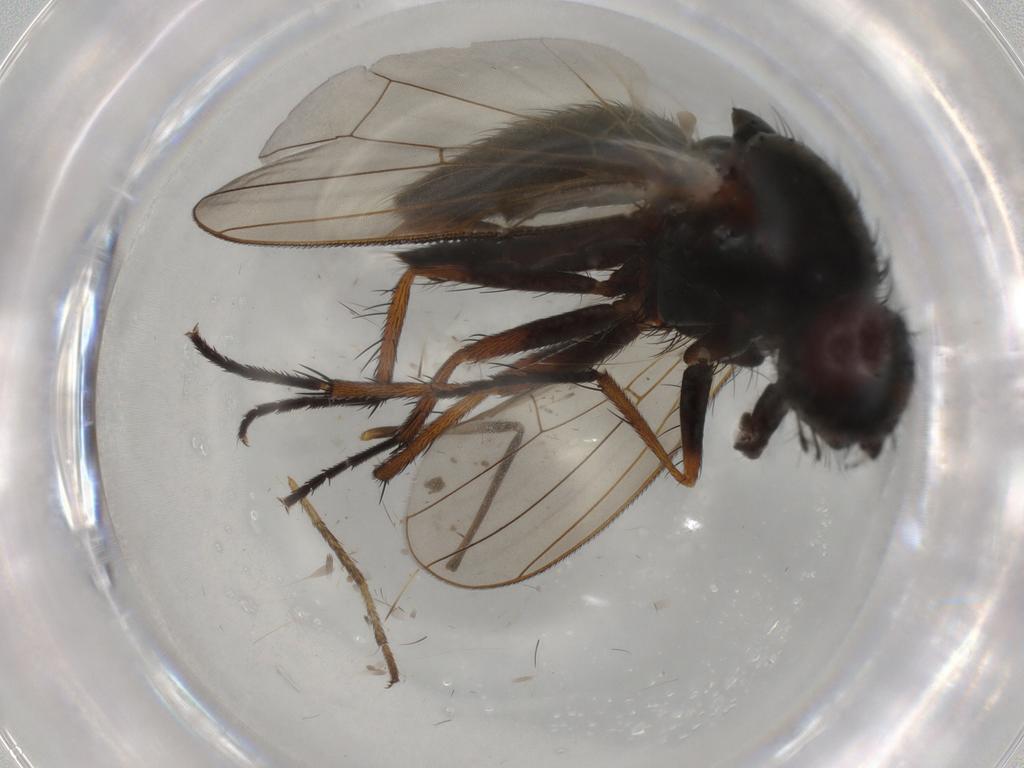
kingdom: Animalia
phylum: Arthropoda
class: Insecta
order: Diptera
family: Anthomyiidae
